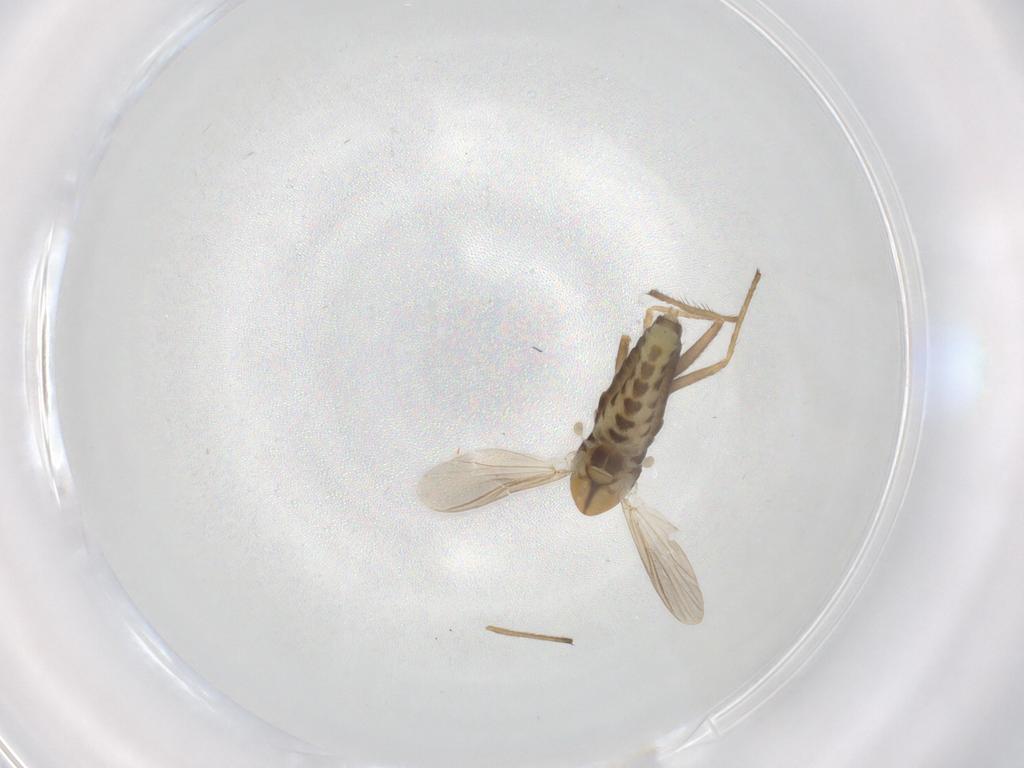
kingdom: Animalia
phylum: Arthropoda
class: Insecta
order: Diptera
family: Chironomidae
